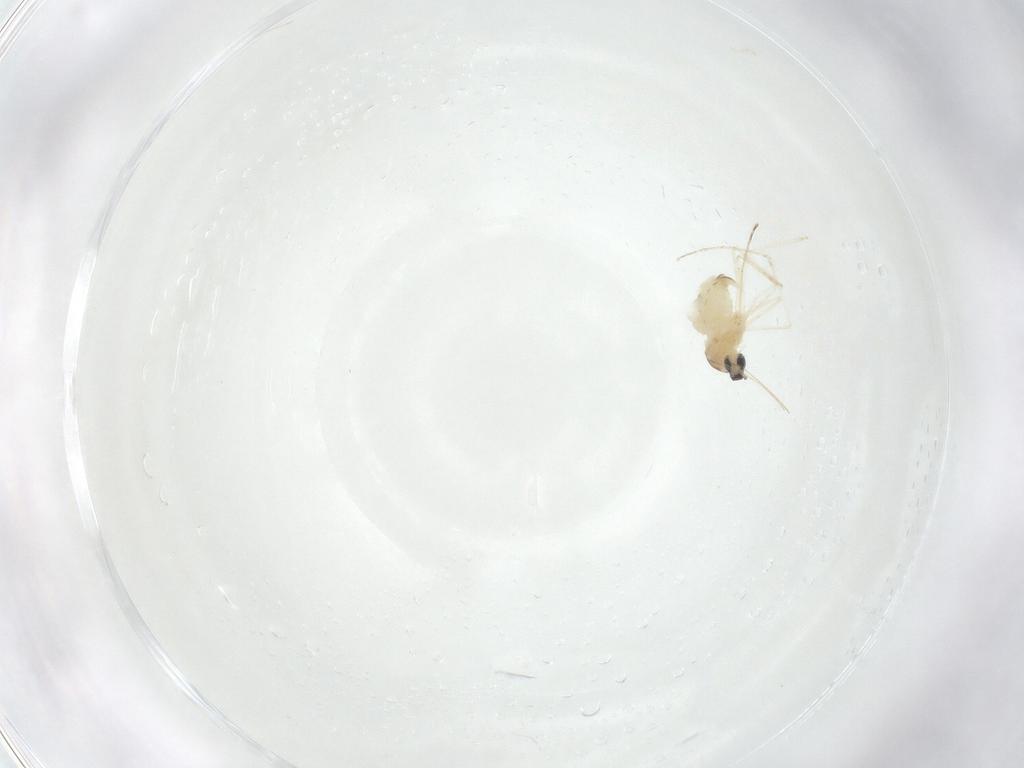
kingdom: Animalia
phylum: Arthropoda
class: Insecta
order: Diptera
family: Cecidomyiidae
